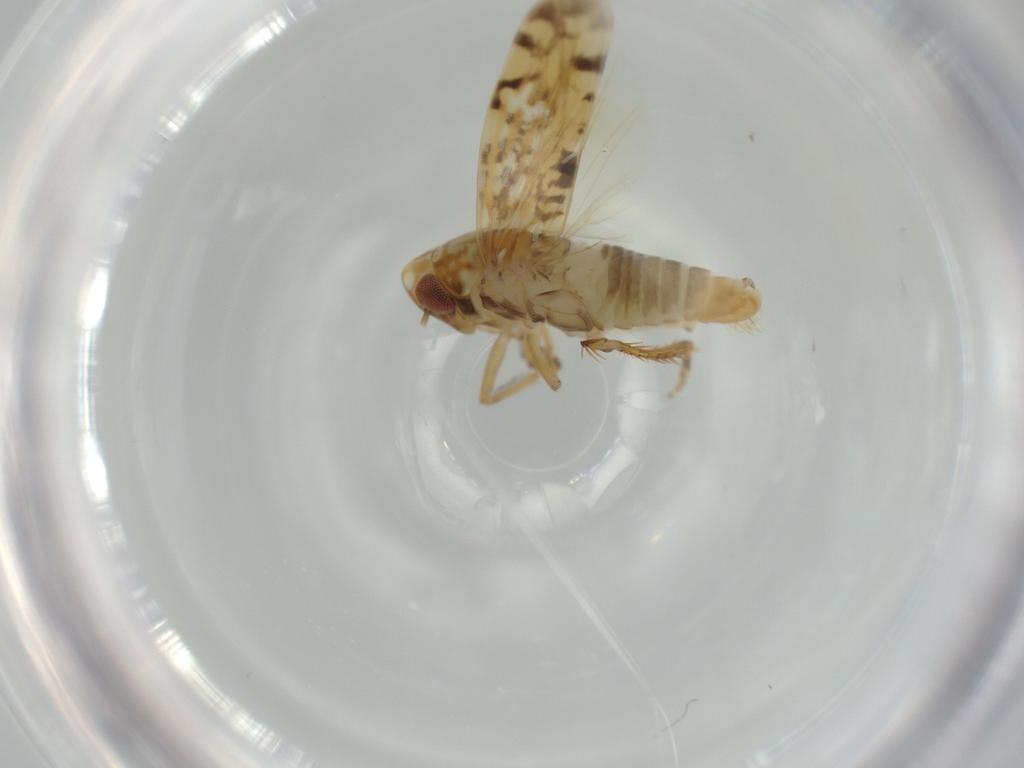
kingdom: Animalia
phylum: Arthropoda
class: Insecta
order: Hemiptera
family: Cicadellidae
